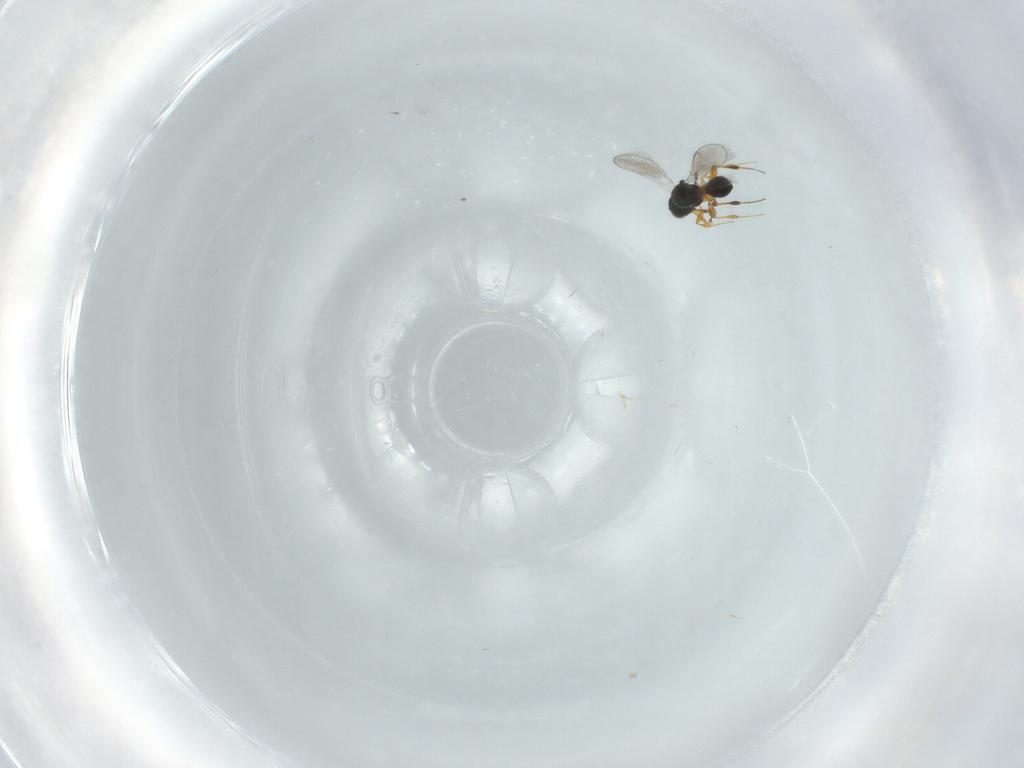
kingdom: Animalia
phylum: Arthropoda
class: Insecta
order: Hymenoptera
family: Platygastridae
